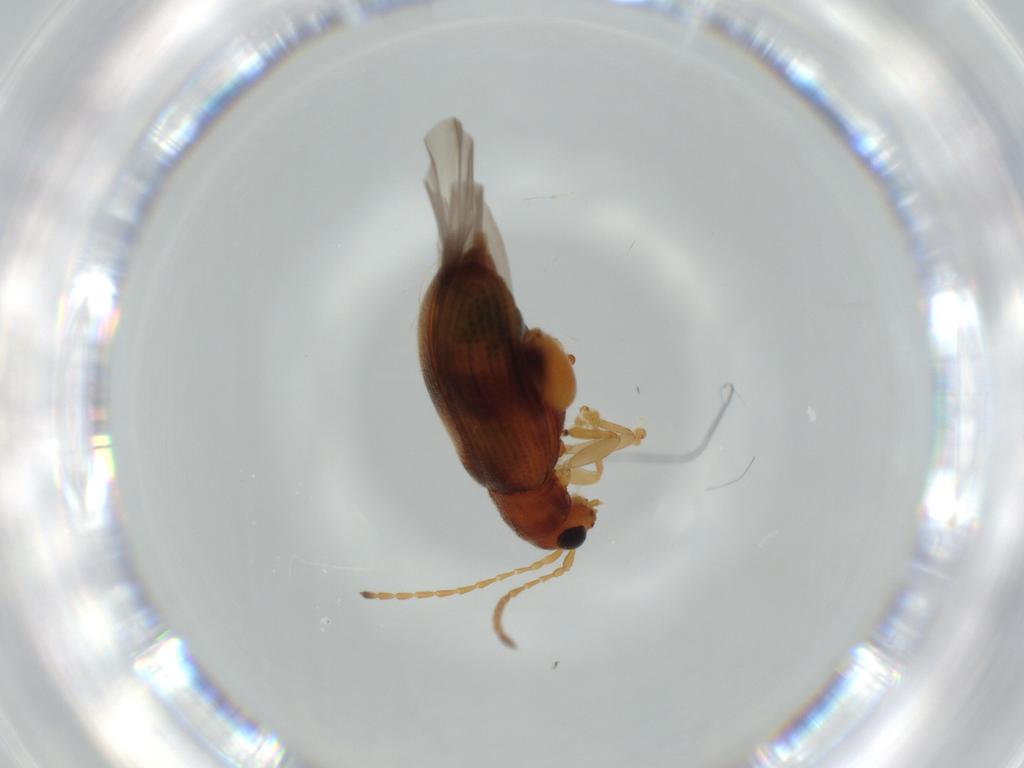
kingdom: Animalia
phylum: Arthropoda
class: Insecta
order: Coleoptera
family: Chrysomelidae
